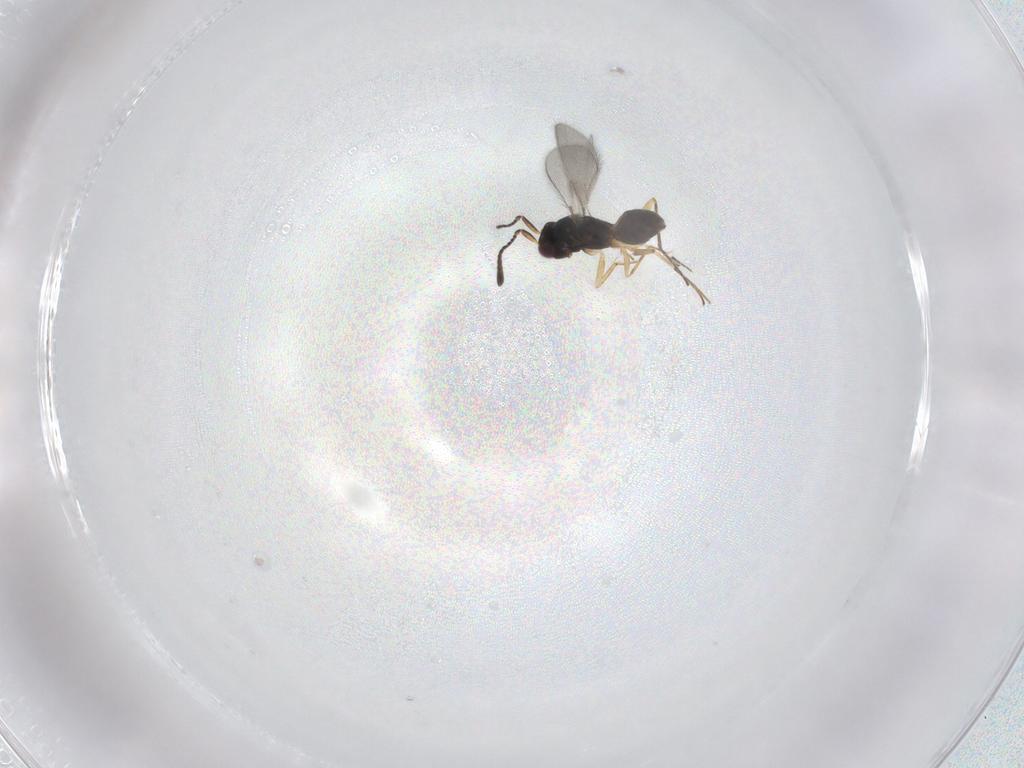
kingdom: Animalia
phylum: Arthropoda
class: Insecta
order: Hymenoptera
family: Mymaridae
